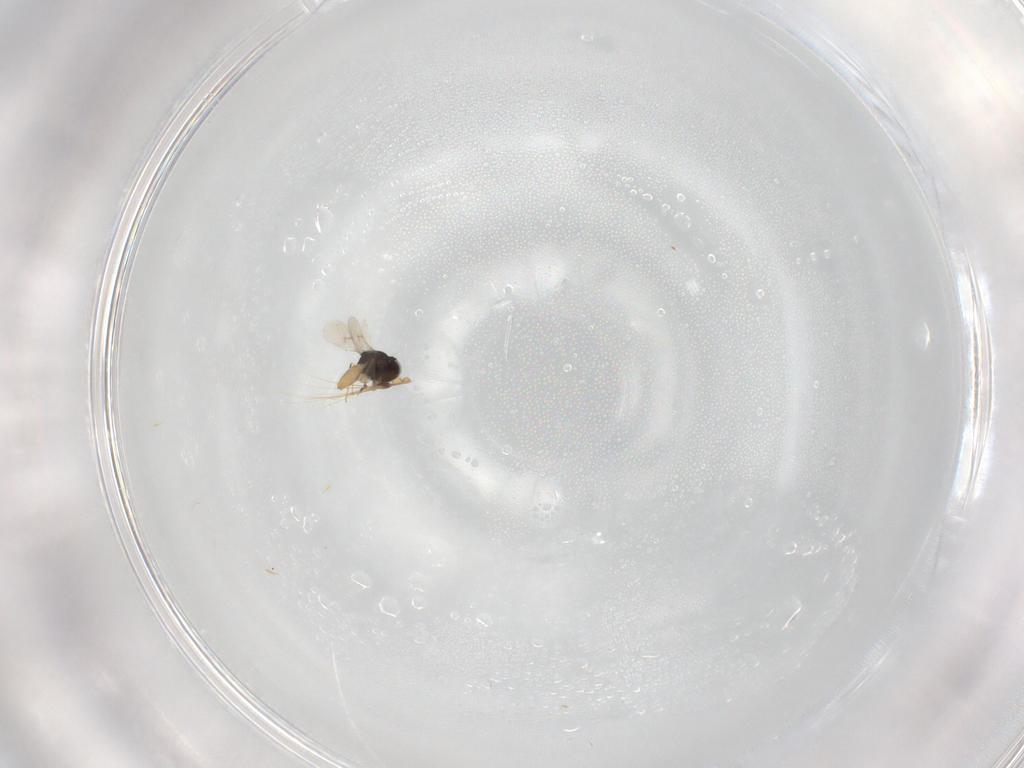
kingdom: Animalia
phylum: Arthropoda
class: Insecta
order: Hymenoptera
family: Scelionidae
